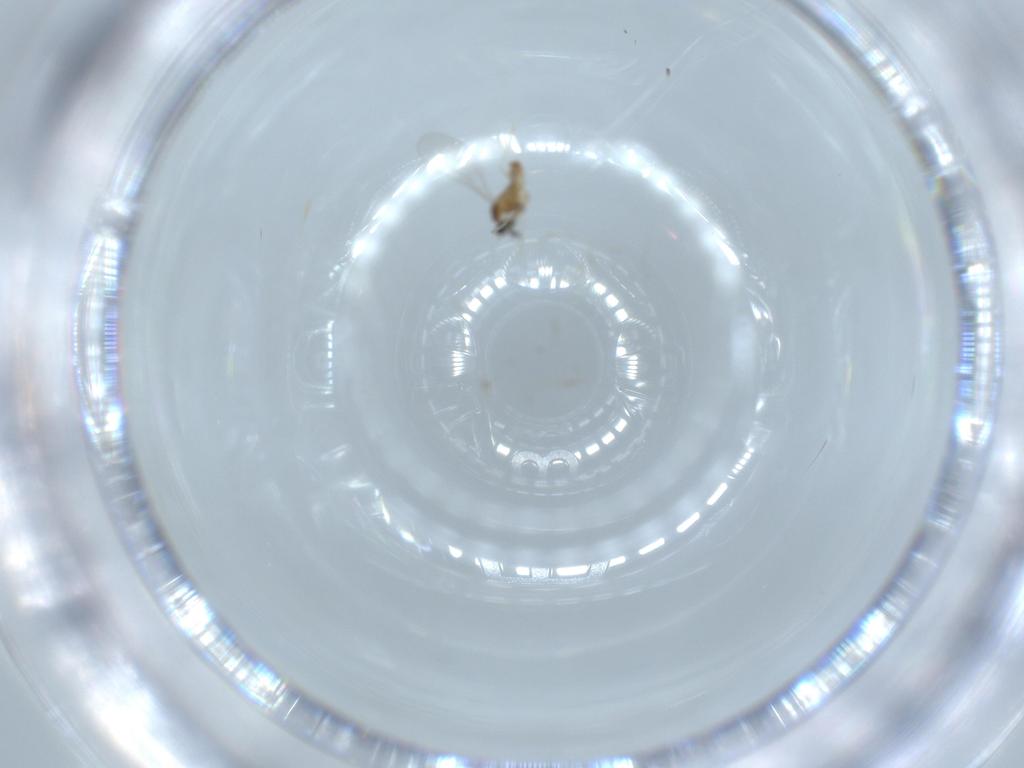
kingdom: Animalia
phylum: Arthropoda
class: Insecta
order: Diptera
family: Cecidomyiidae
